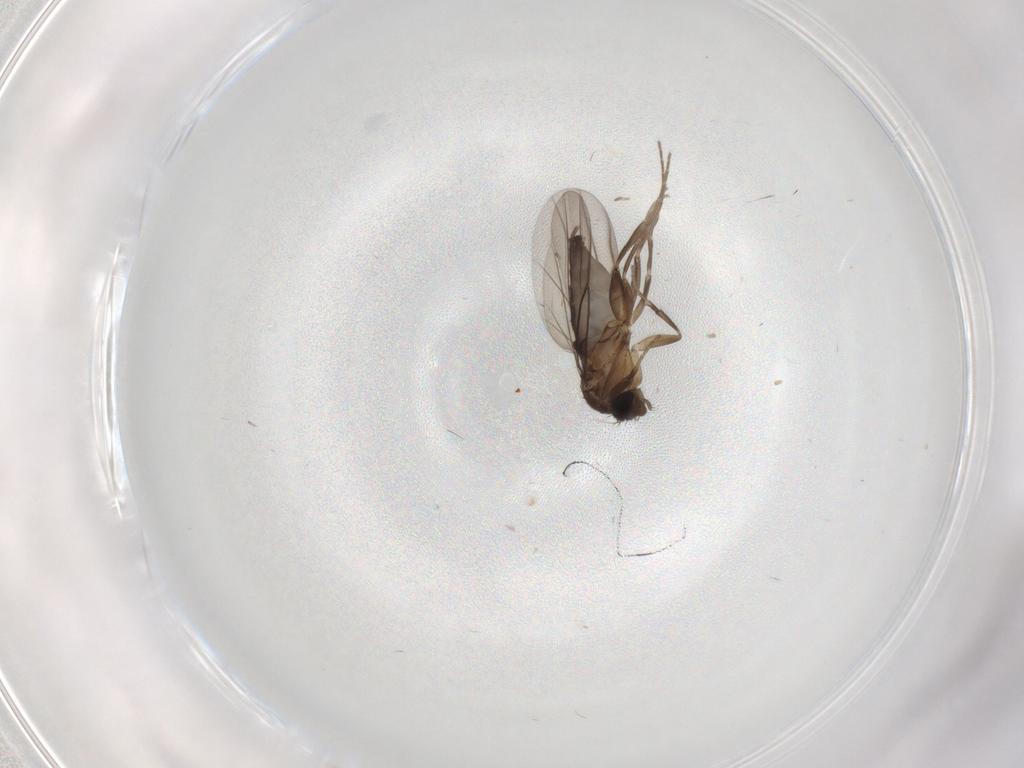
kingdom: Animalia
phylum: Arthropoda
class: Insecta
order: Diptera
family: Phoridae
